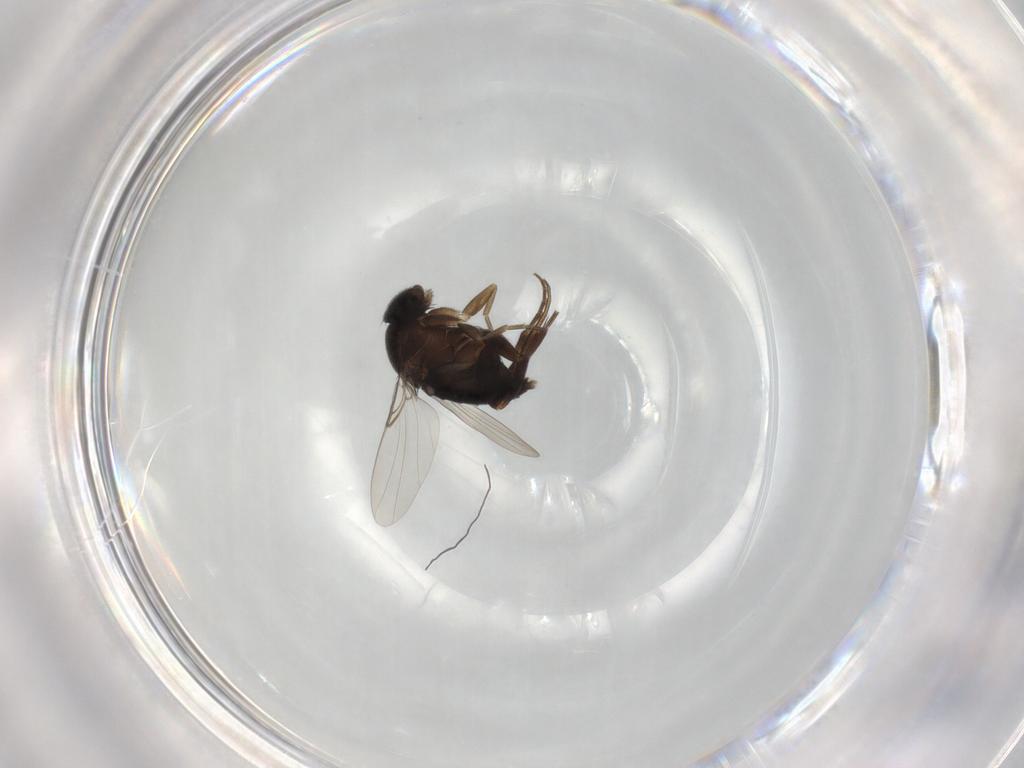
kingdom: Animalia
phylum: Arthropoda
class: Insecta
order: Diptera
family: Phoridae
